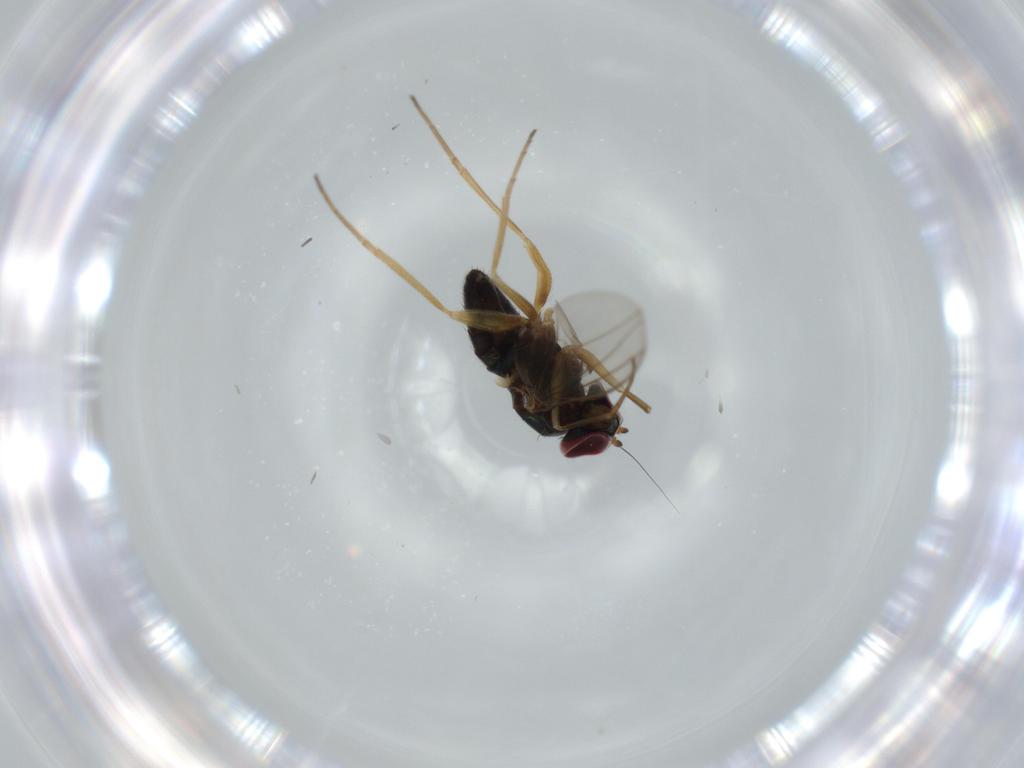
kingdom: Animalia
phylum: Arthropoda
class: Insecta
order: Diptera
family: Dolichopodidae
